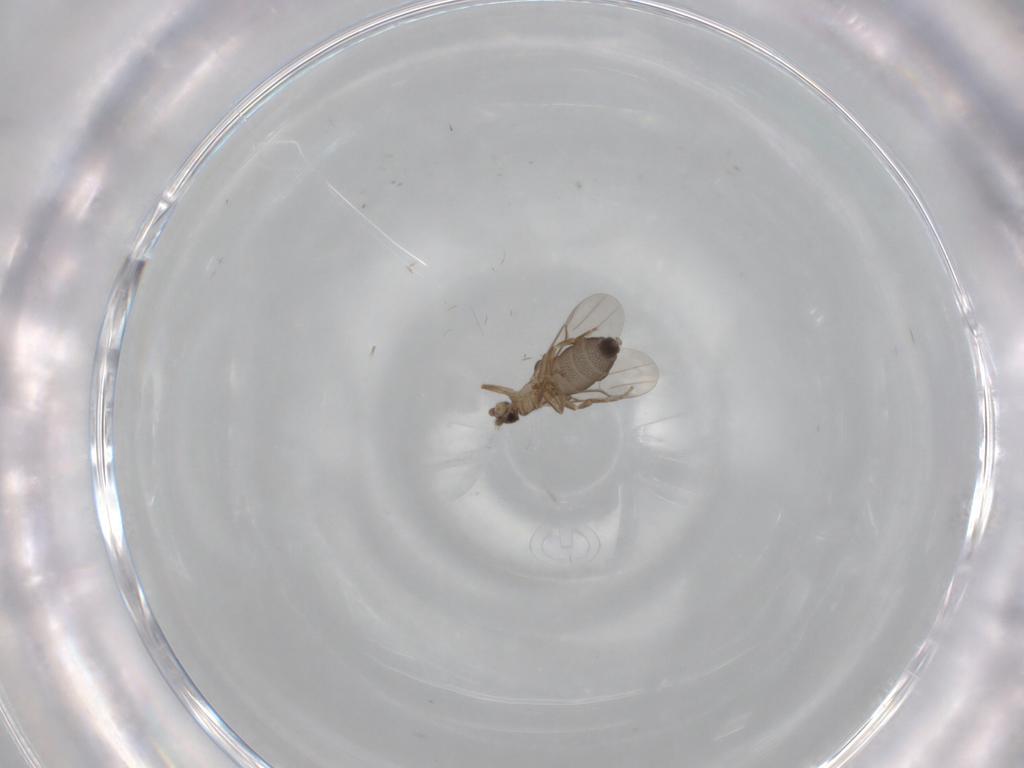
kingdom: Animalia
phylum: Arthropoda
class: Insecta
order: Diptera
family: Phoridae
